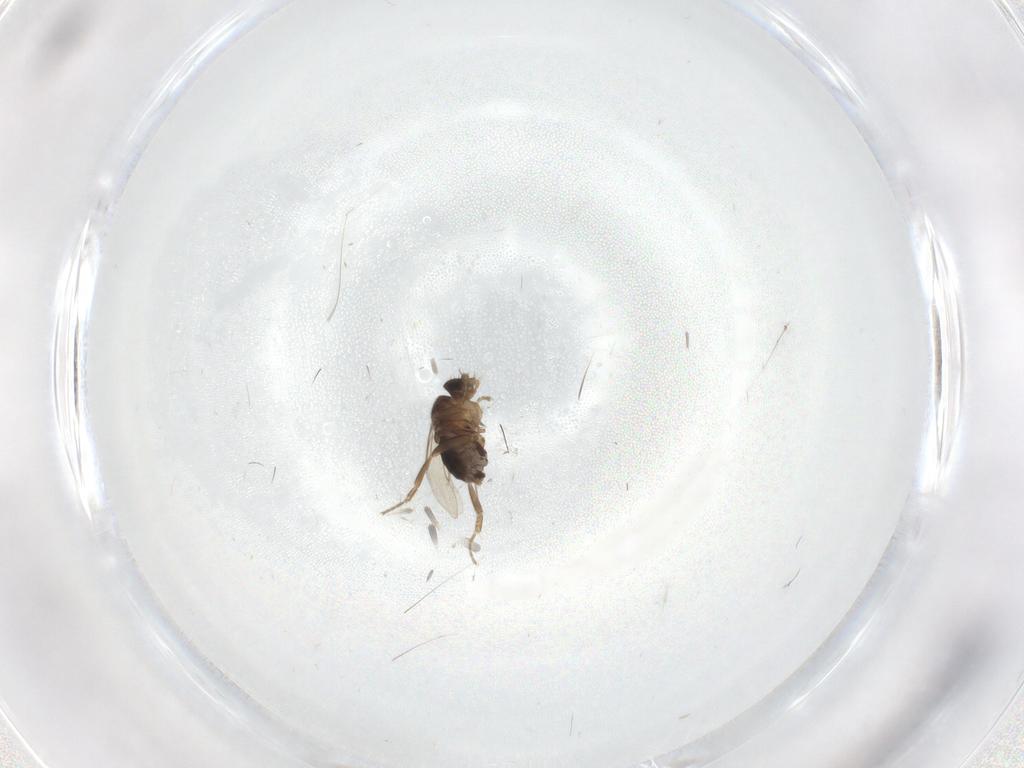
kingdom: Animalia
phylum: Arthropoda
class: Insecta
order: Diptera
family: Phoridae
